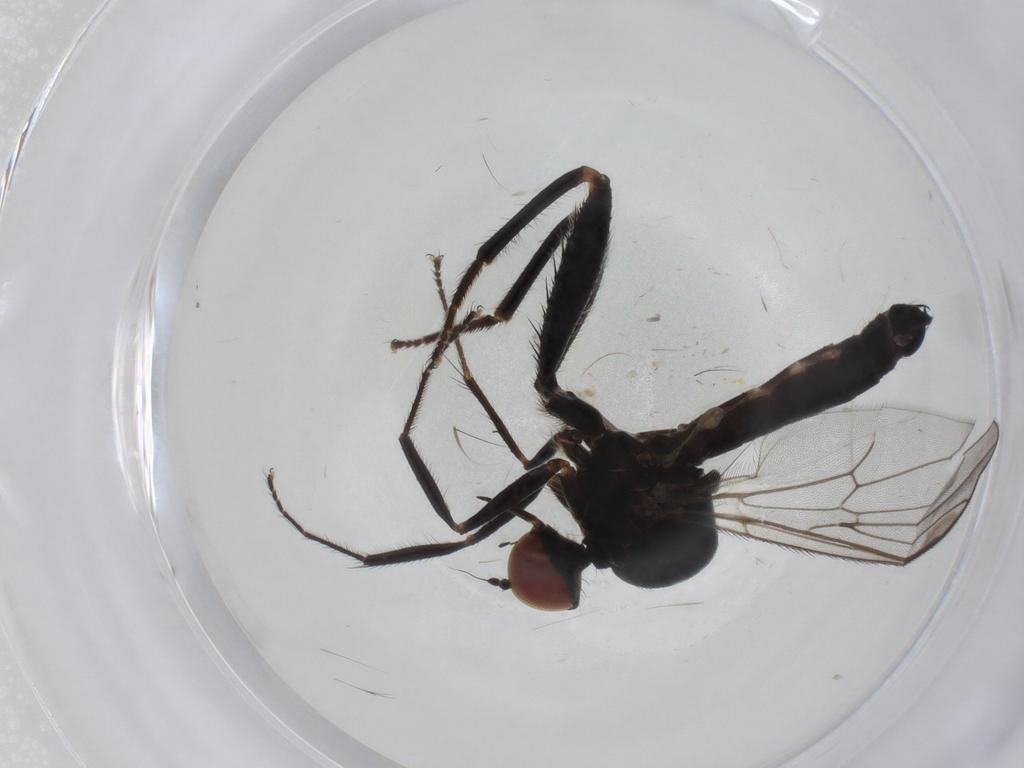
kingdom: Animalia
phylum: Arthropoda
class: Insecta
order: Diptera
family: Hybotidae
